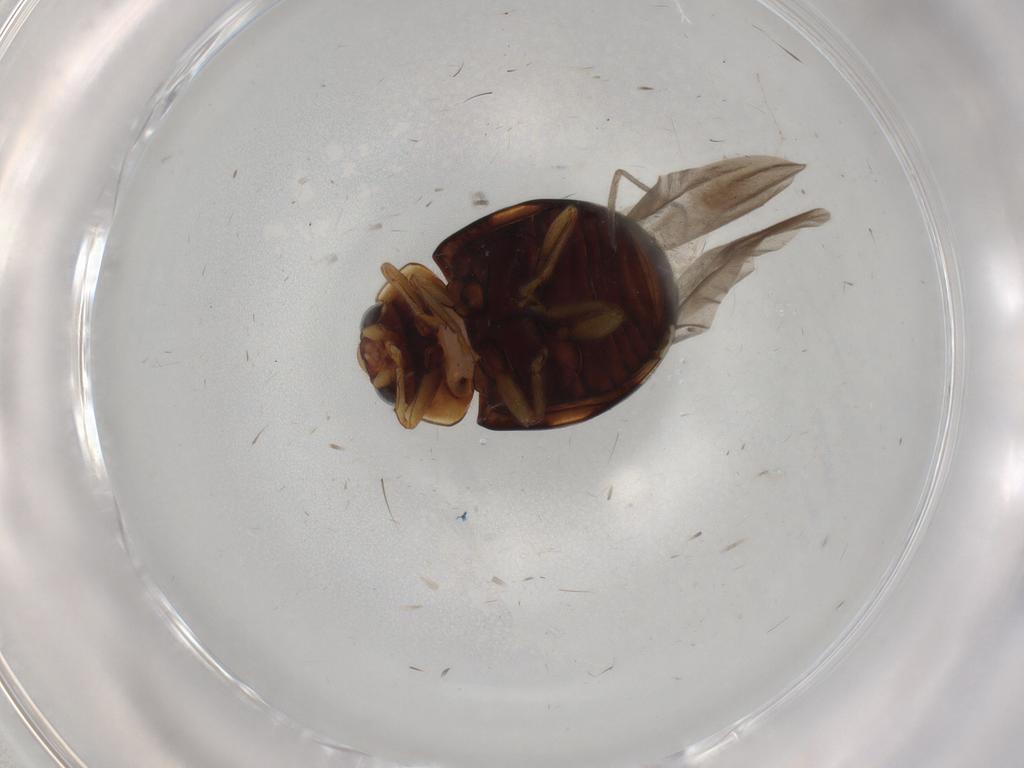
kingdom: Animalia
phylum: Arthropoda
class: Insecta
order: Coleoptera
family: Coccinellidae
